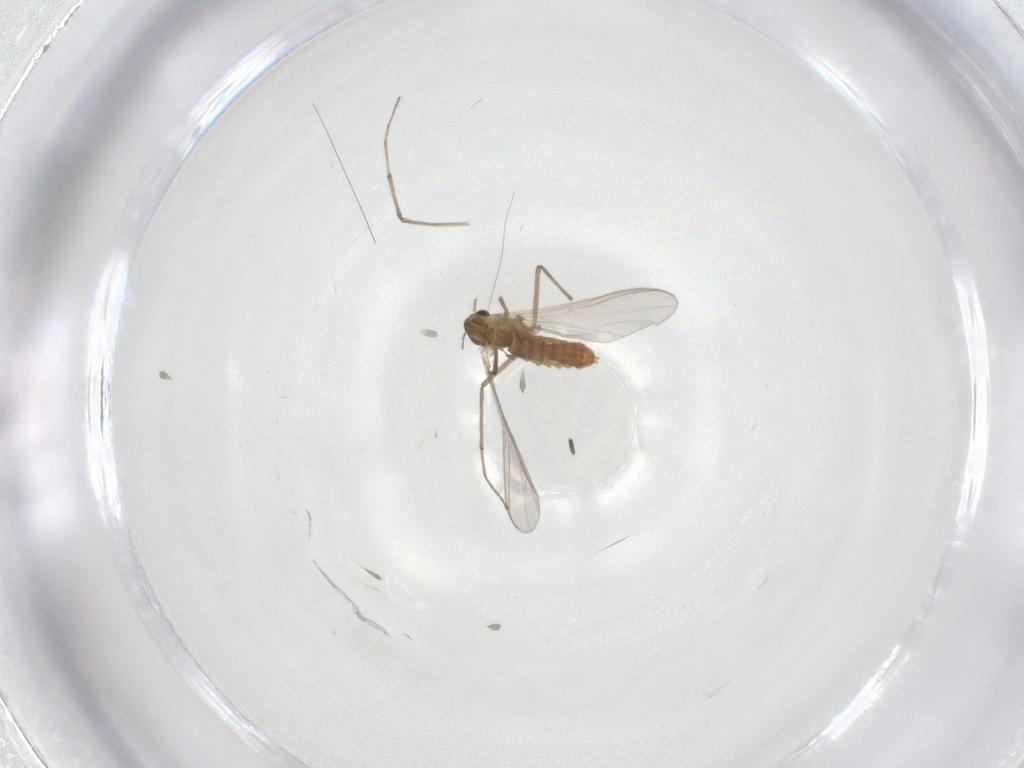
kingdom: Animalia
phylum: Arthropoda
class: Insecta
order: Diptera
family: Chironomidae
